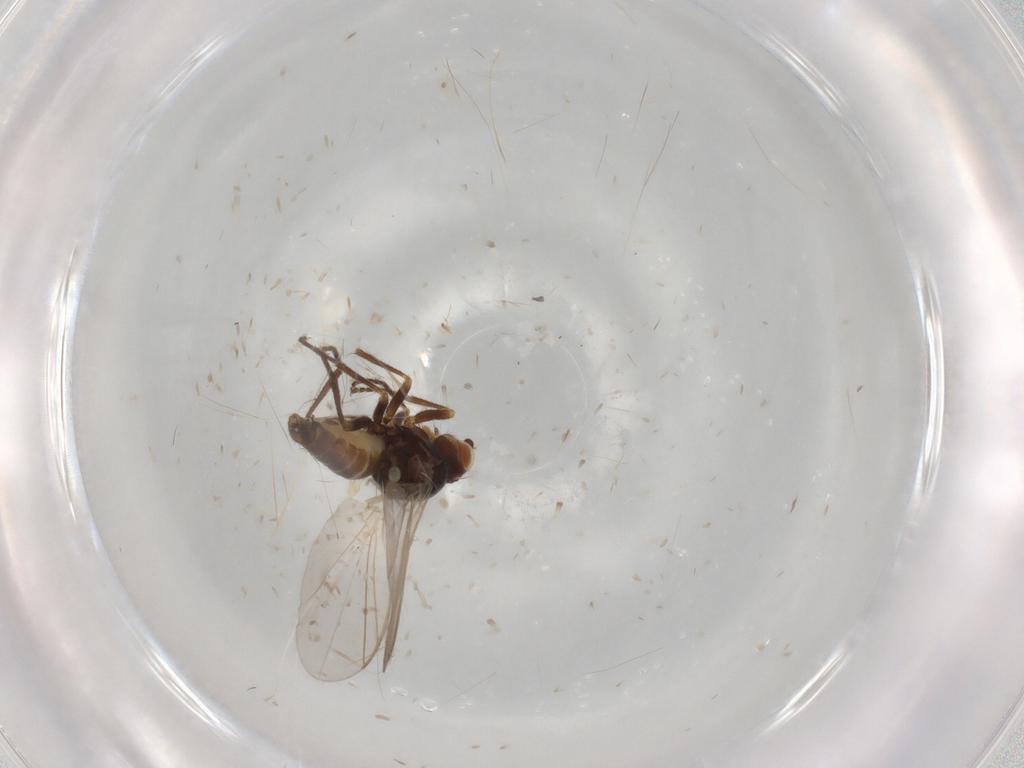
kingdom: Animalia
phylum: Arthropoda
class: Insecta
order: Diptera
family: Syrphidae
